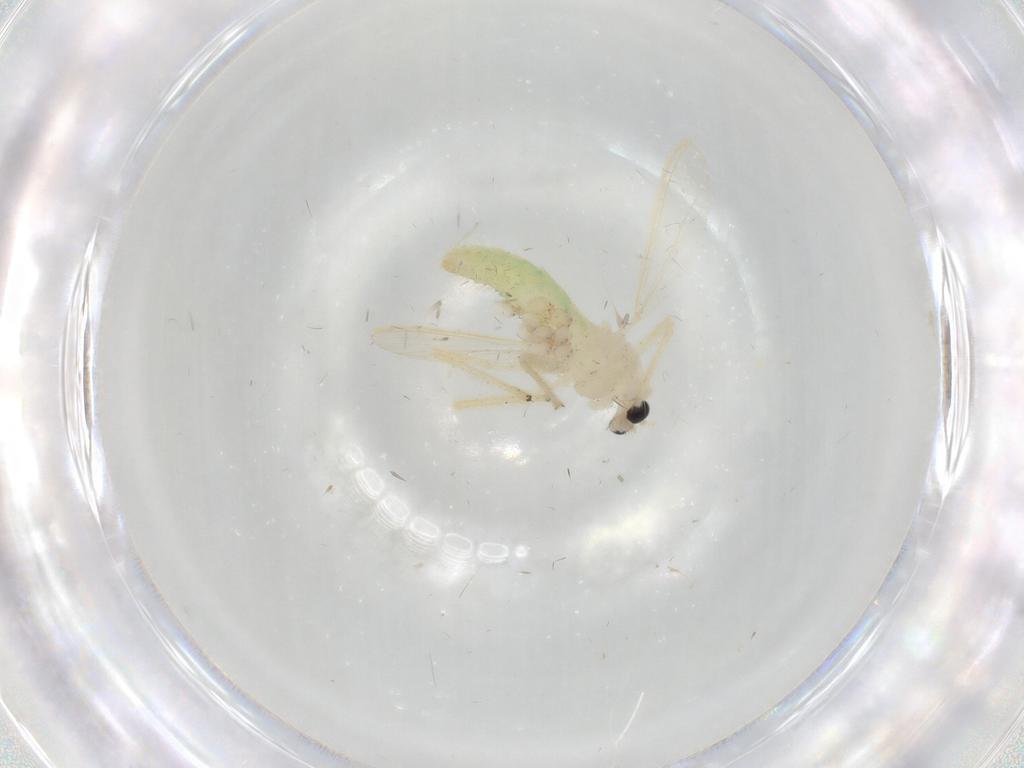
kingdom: Animalia
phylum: Arthropoda
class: Insecta
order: Diptera
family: Chironomidae
